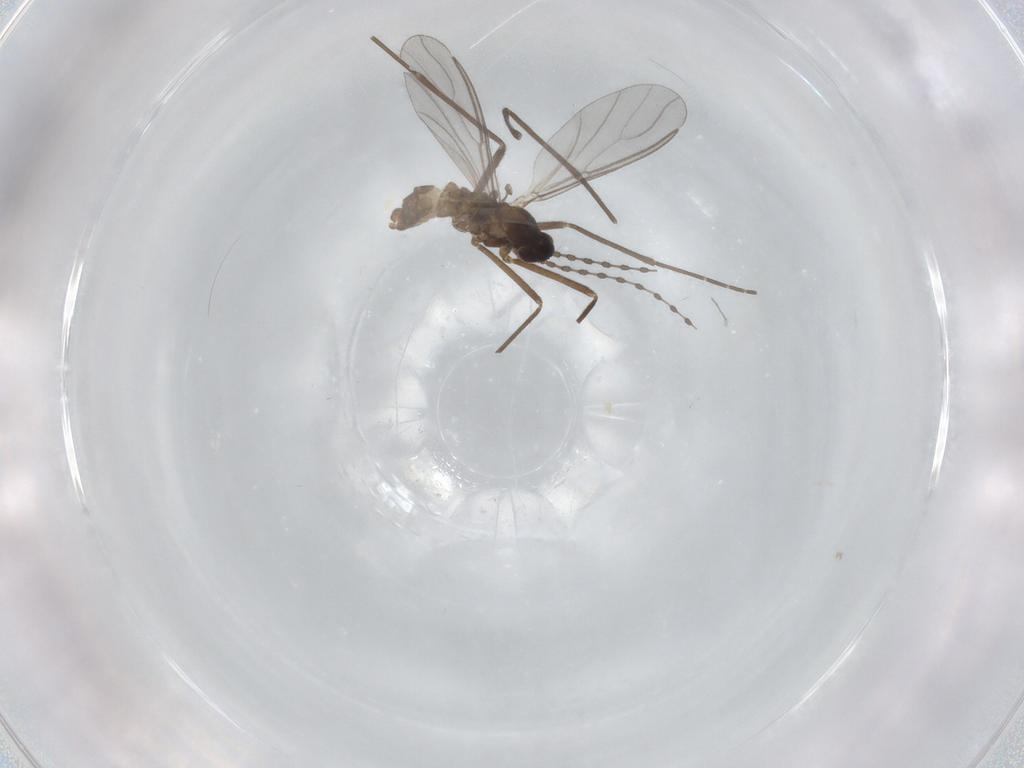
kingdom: Animalia
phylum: Arthropoda
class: Insecta
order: Diptera
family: Cecidomyiidae
